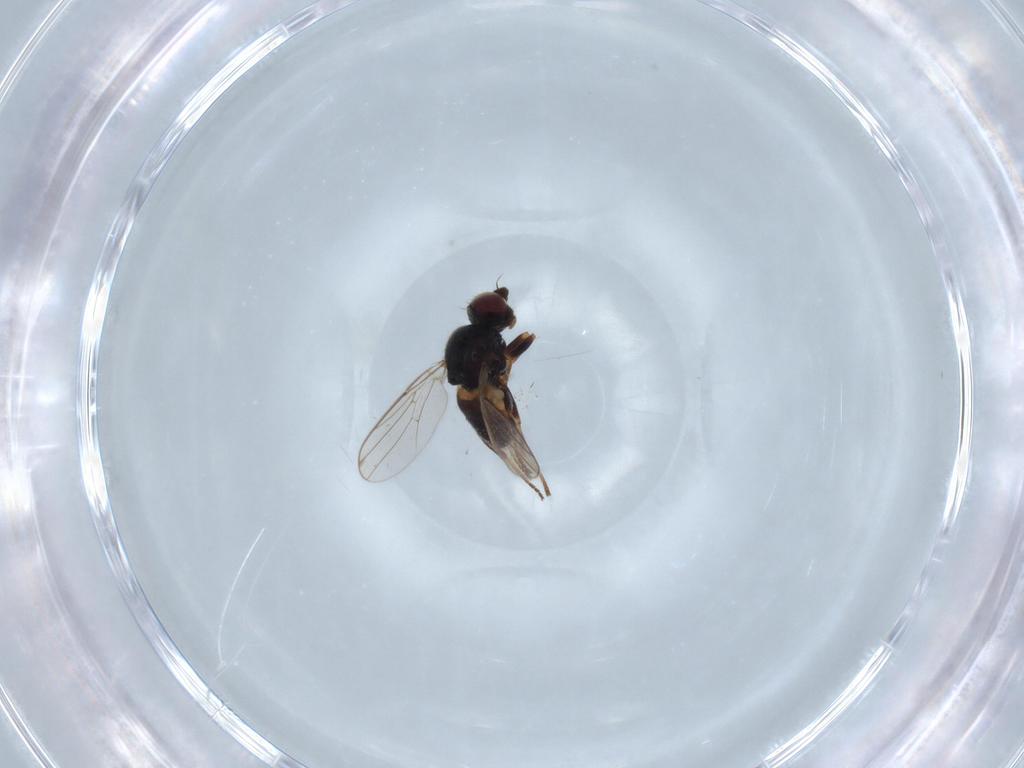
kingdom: Animalia
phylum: Arthropoda
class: Insecta
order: Diptera
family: Chloropidae
